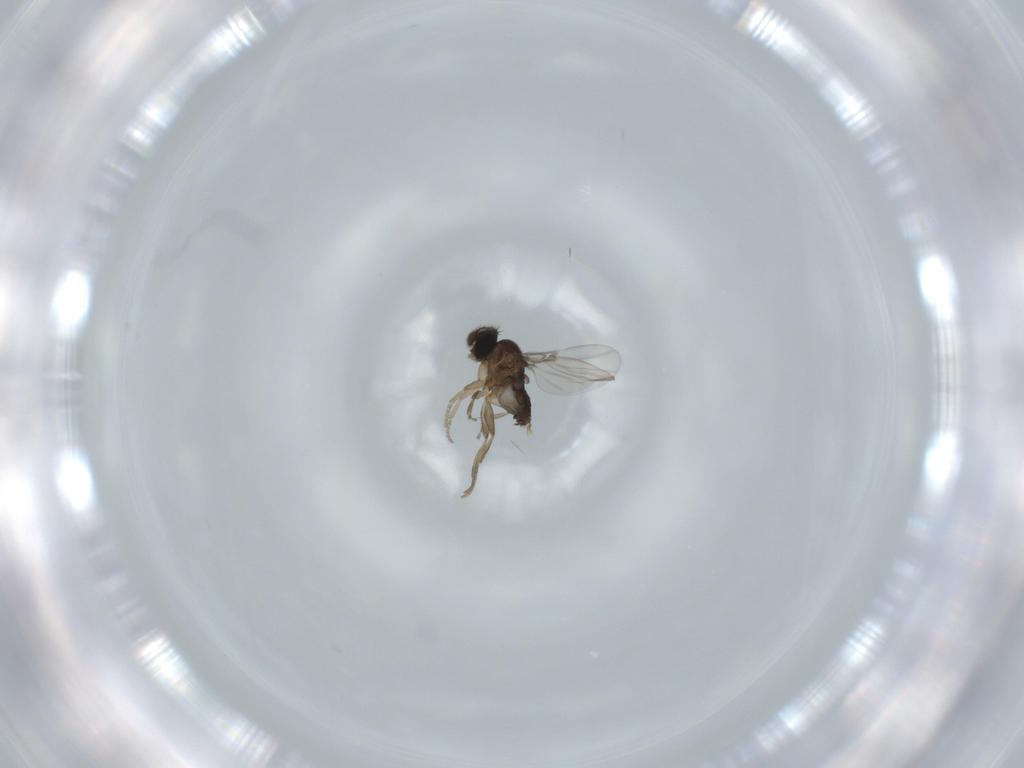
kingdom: Animalia
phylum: Arthropoda
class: Insecta
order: Diptera
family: Phoridae
